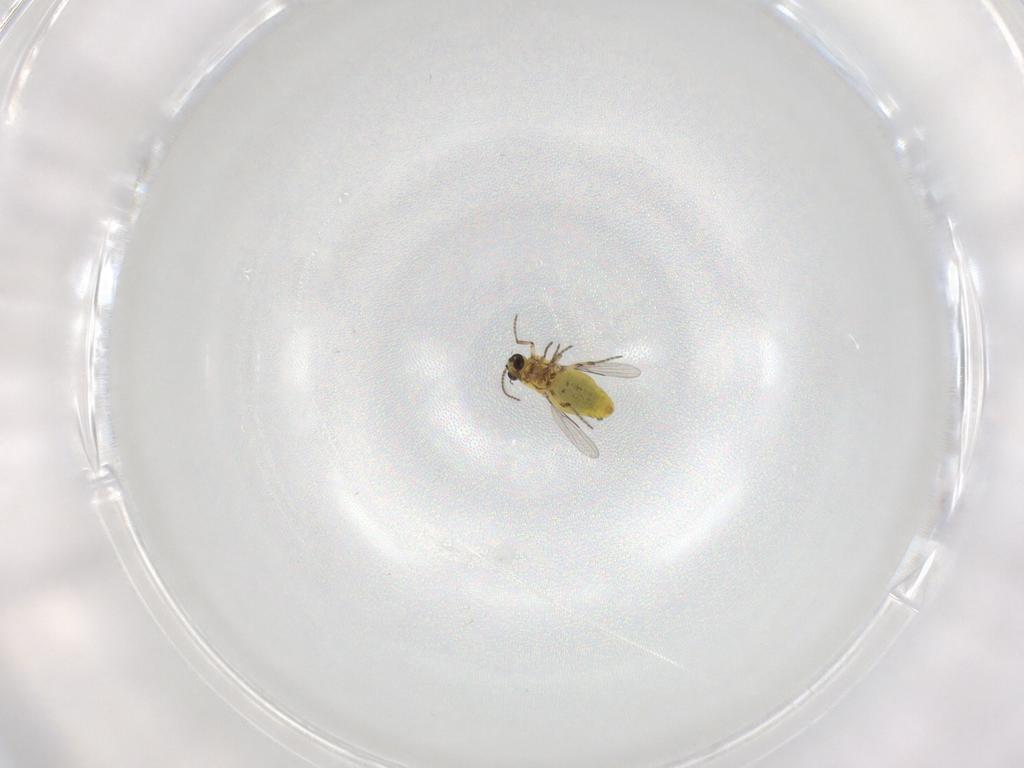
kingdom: Animalia
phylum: Arthropoda
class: Insecta
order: Diptera
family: Ceratopogonidae
